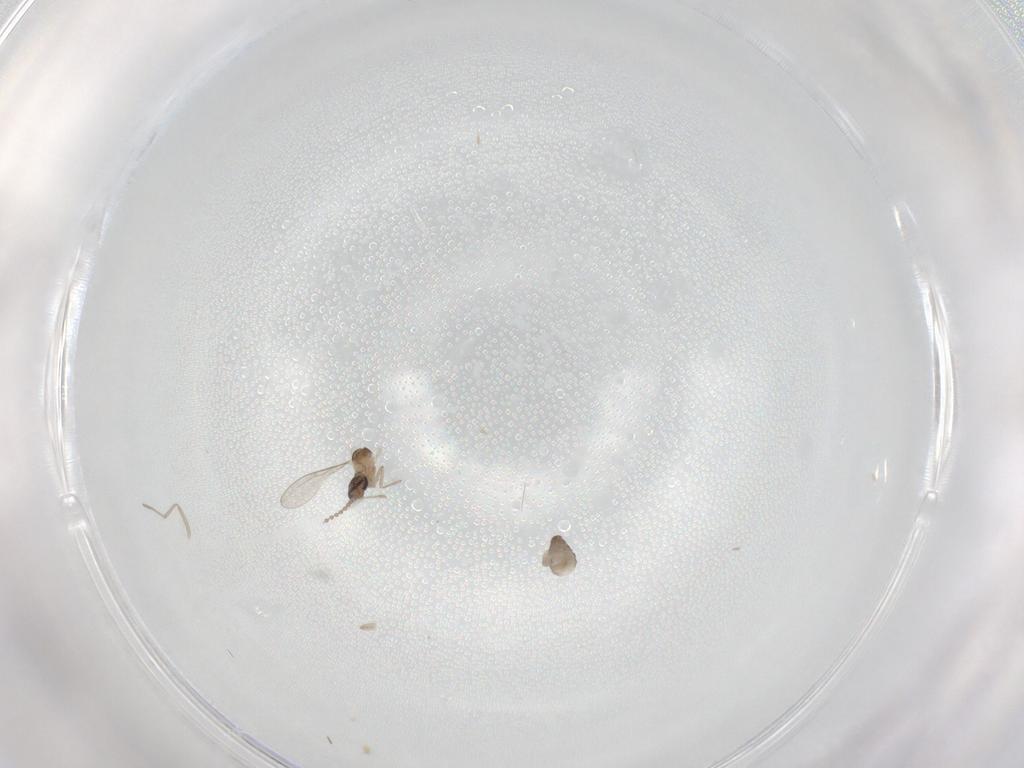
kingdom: Animalia
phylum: Arthropoda
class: Insecta
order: Diptera
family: Cecidomyiidae
